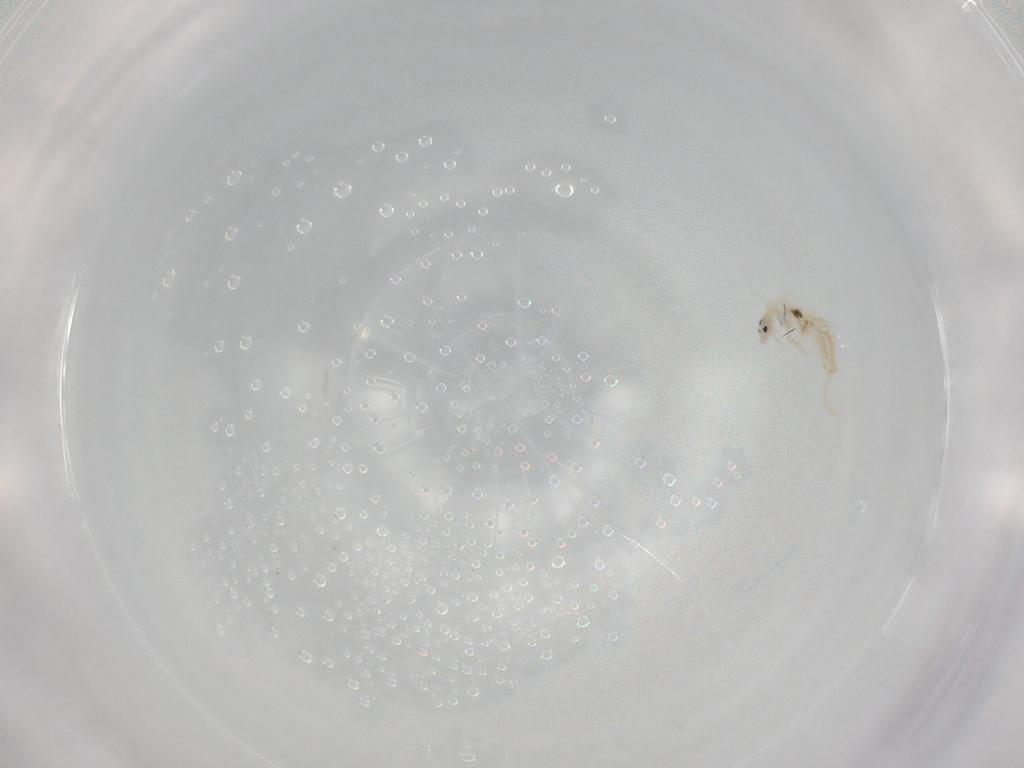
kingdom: Animalia
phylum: Arthropoda
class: Collembola
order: Entomobryomorpha
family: Entomobryidae
